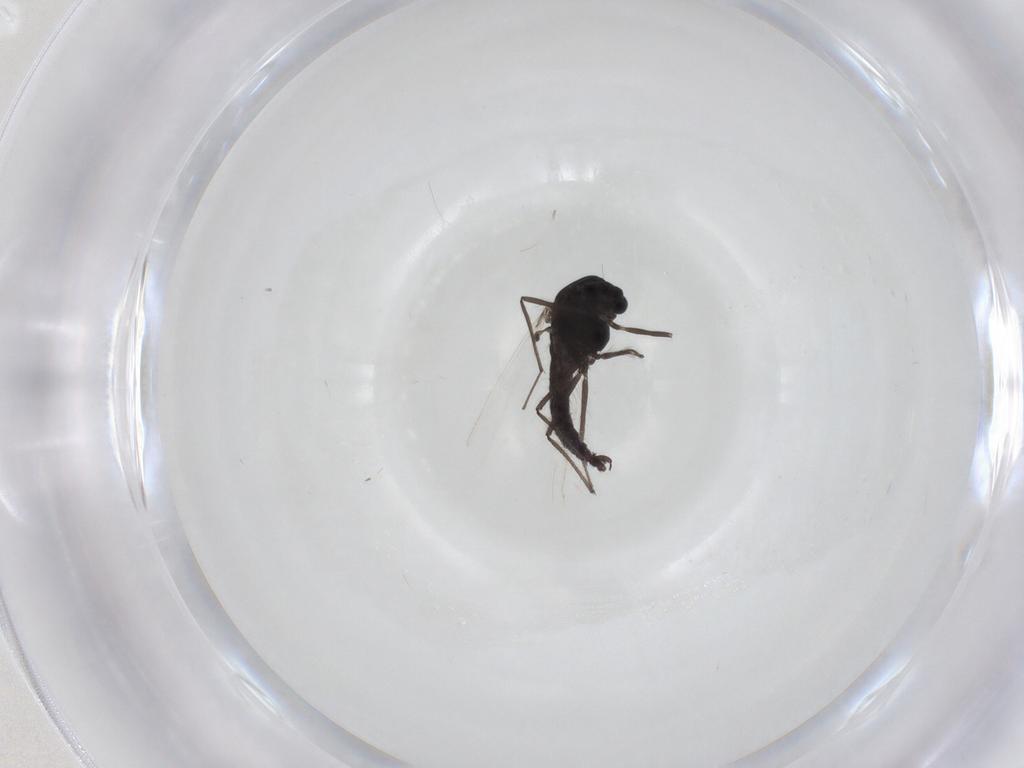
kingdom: Animalia
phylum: Arthropoda
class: Insecta
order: Diptera
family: Chironomidae
